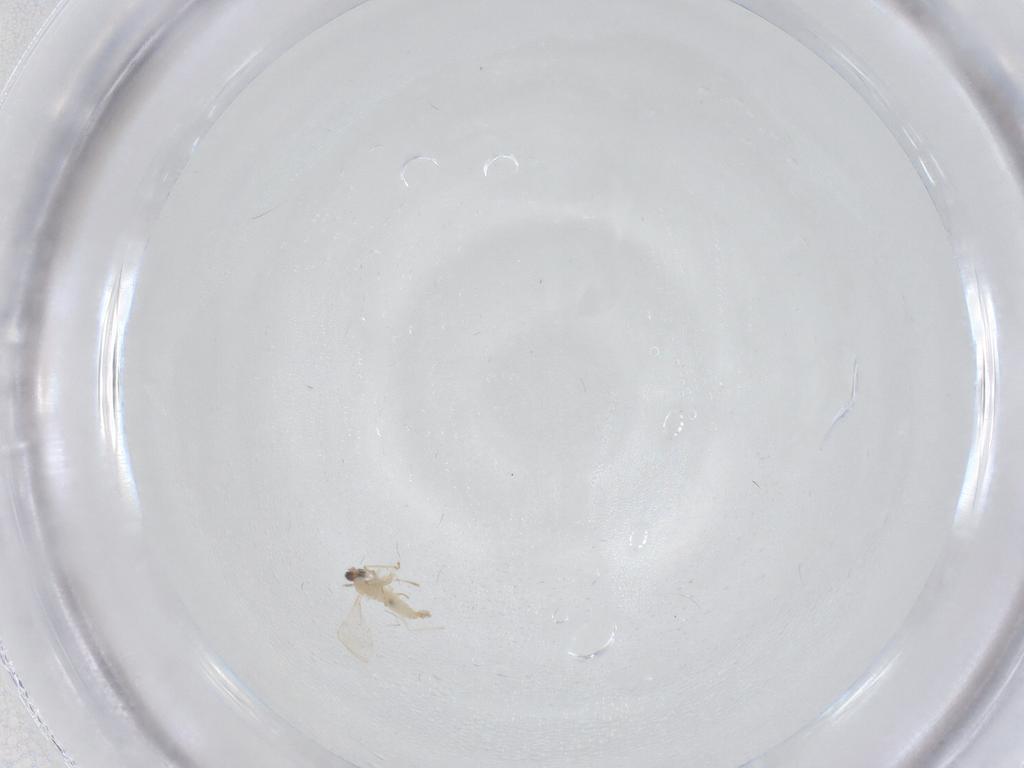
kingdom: Animalia
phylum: Arthropoda
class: Insecta
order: Diptera
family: Cecidomyiidae
